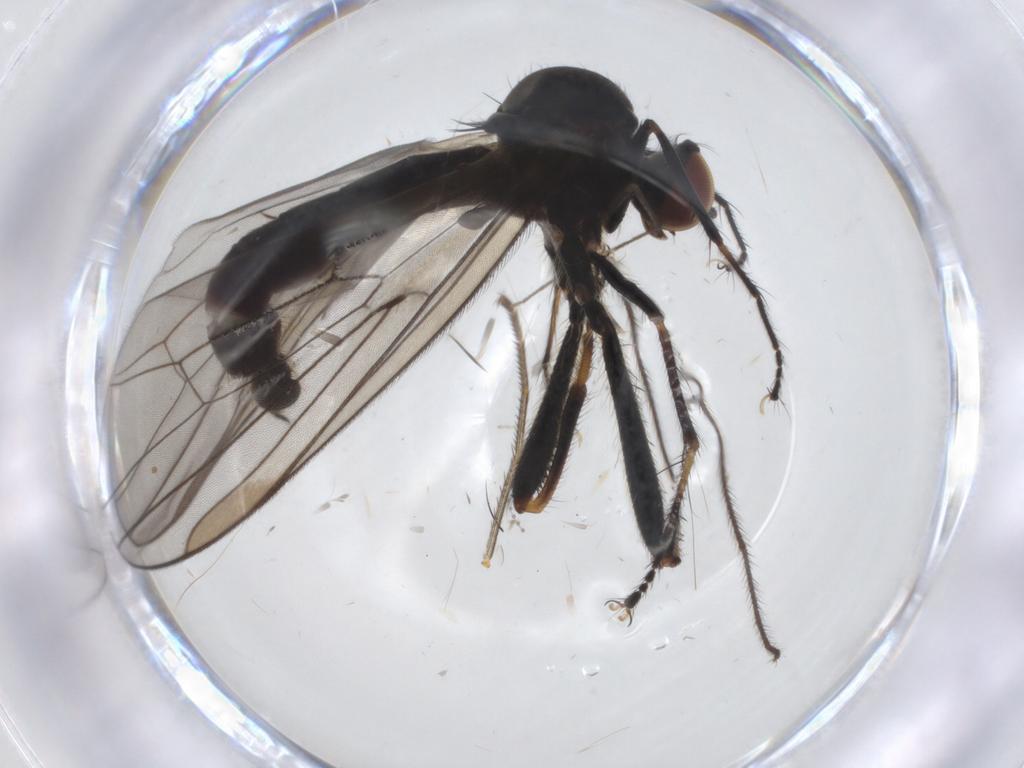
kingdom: Animalia
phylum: Arthropoda
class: Insecta
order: Diptera
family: Hybotidae
